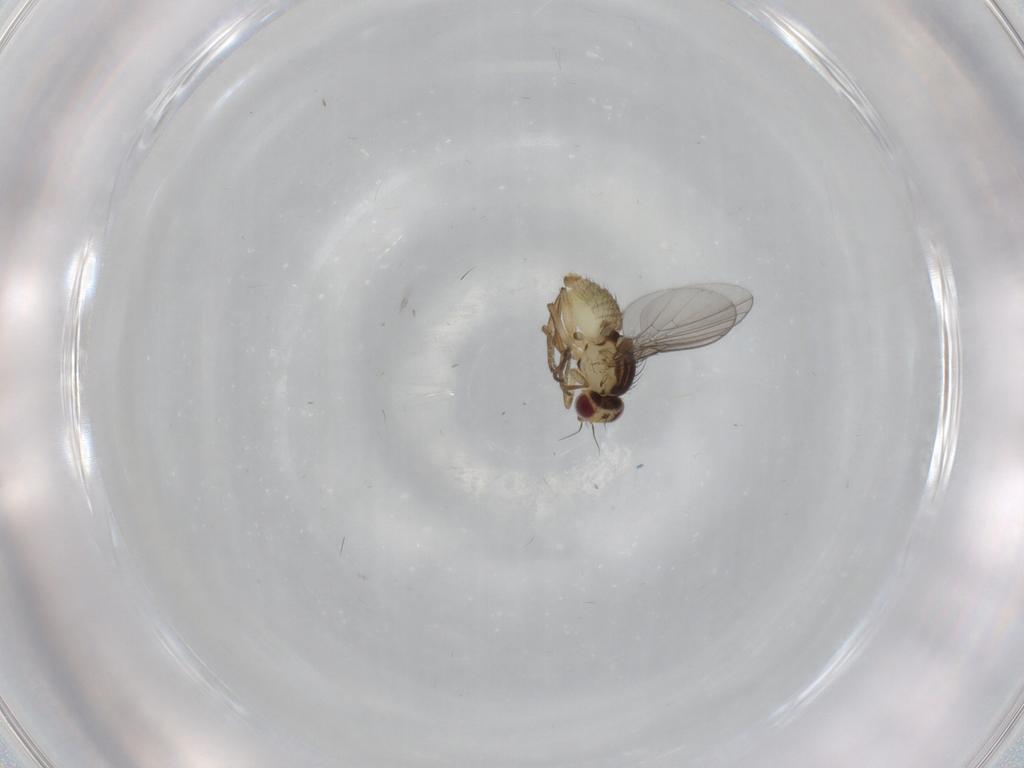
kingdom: Animalia
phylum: Arthropoda
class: Insecta
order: Diptera
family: Agromyzidae
